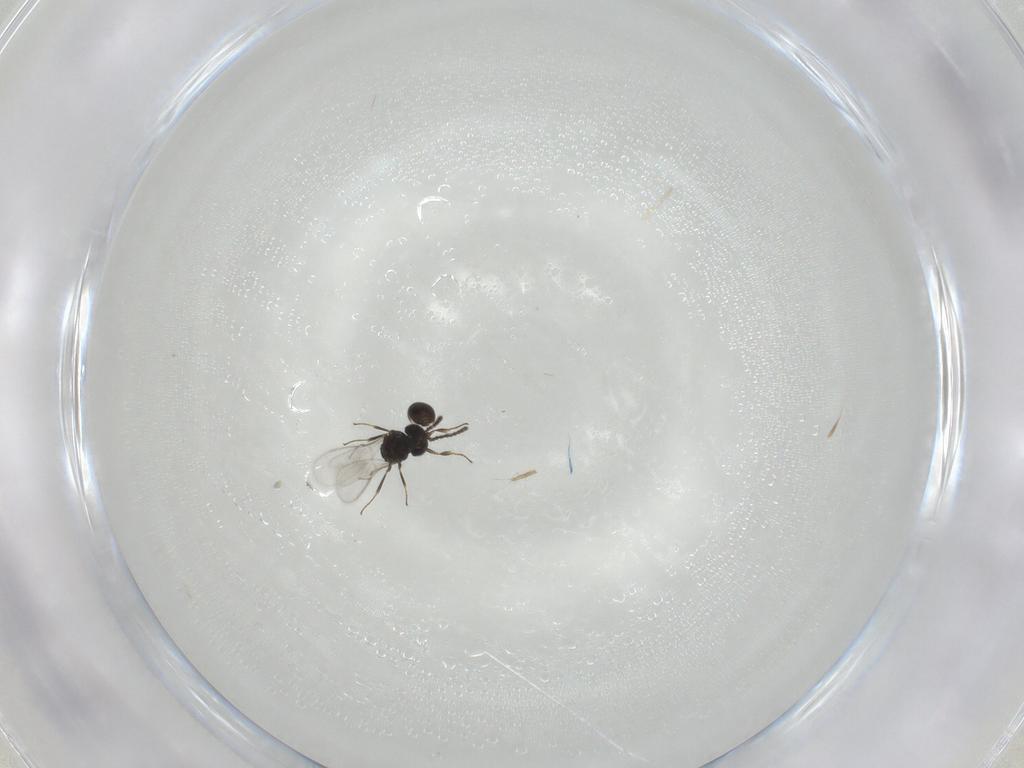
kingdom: Animalia
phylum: Arthropoda
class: Insecta
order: Hymenoptera
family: Scelionidae
